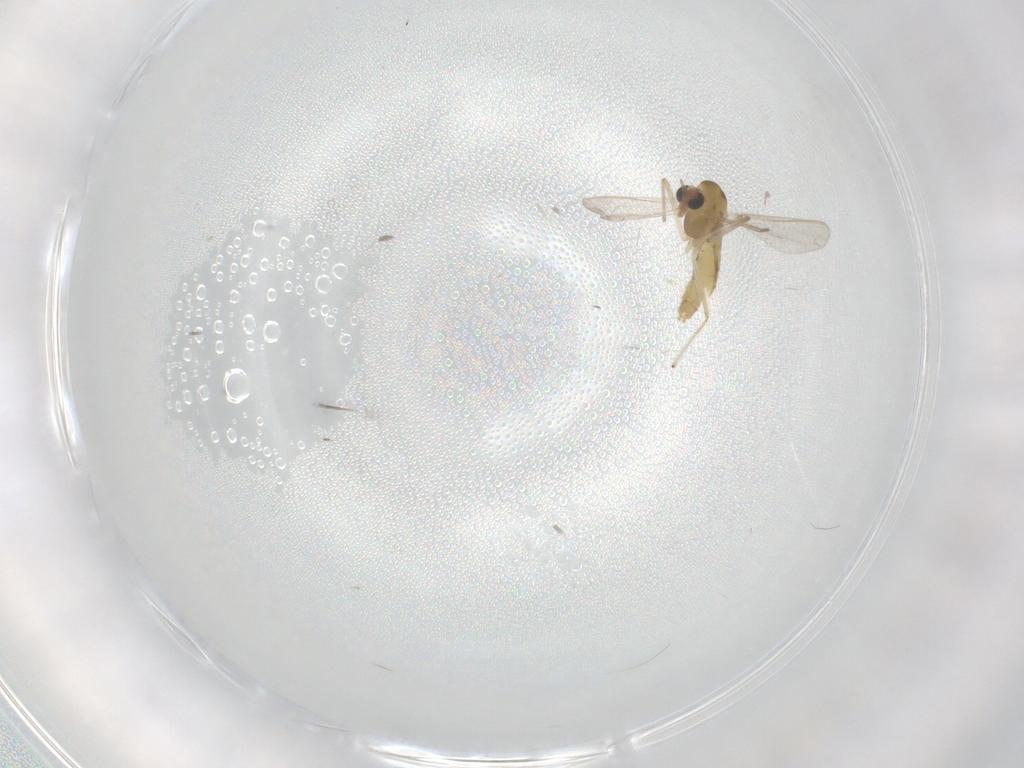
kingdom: Animalia
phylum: Arthropoda
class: Insecta
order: Diptera
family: Chironomidae
